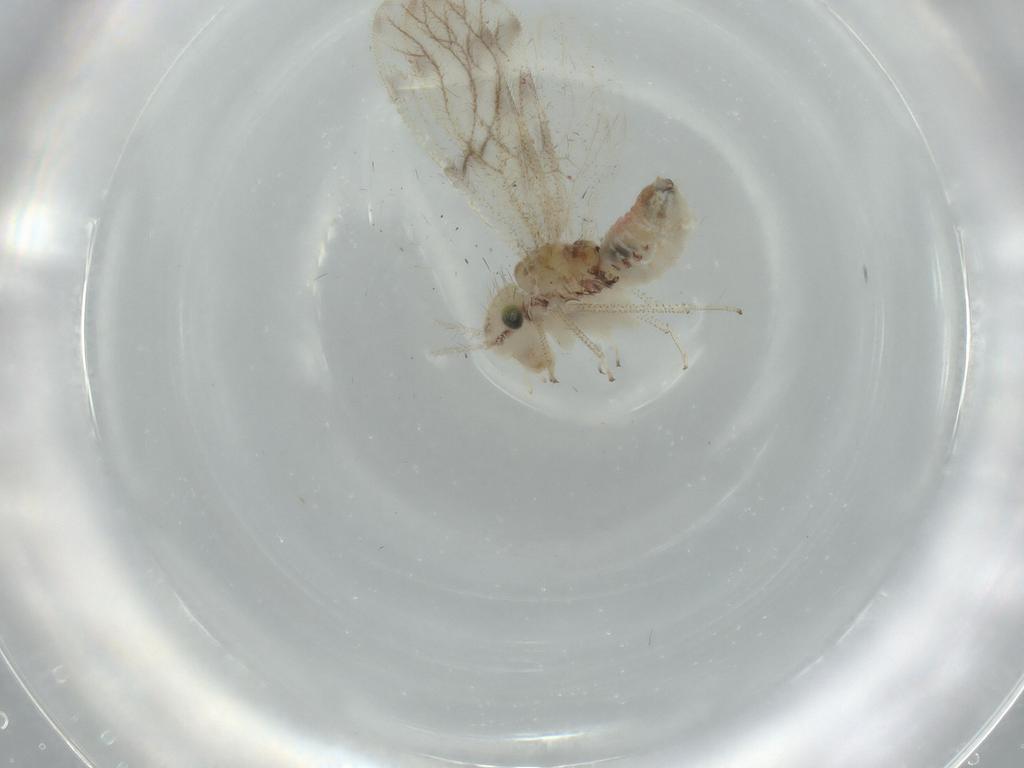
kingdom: Animalia
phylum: Arthropoda
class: Insecta
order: Psocodea
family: Pseudocaeciliidae
